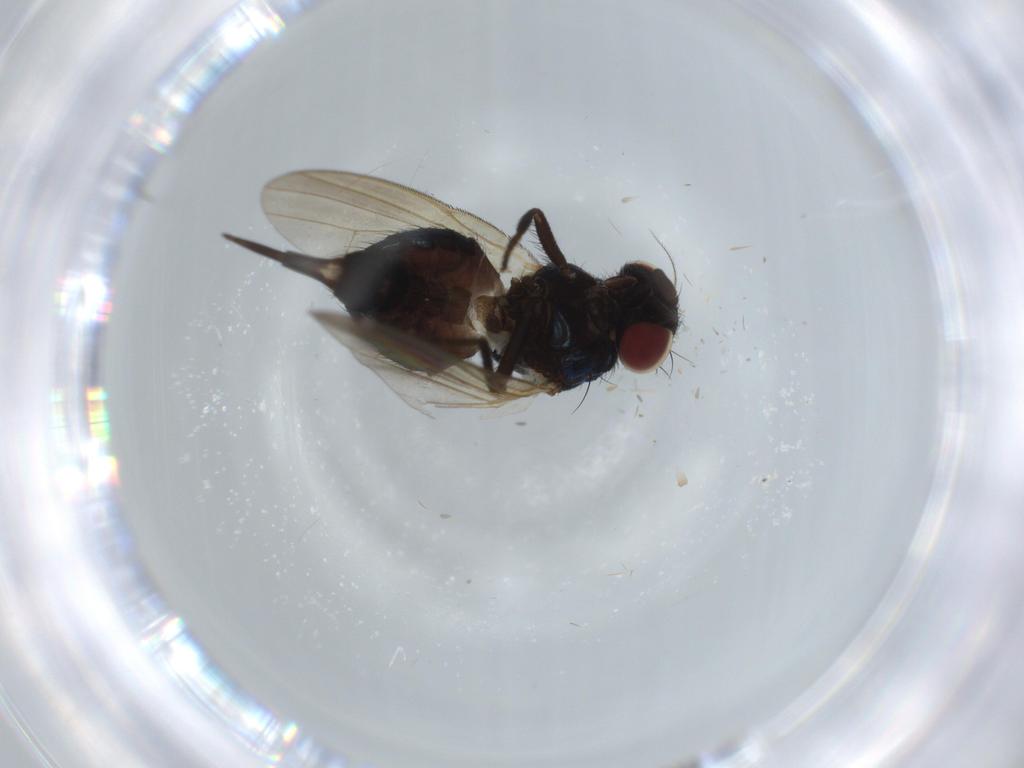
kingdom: Animalia
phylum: Arthropoda
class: Insecta
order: Diptera
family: Lonchaeidae
